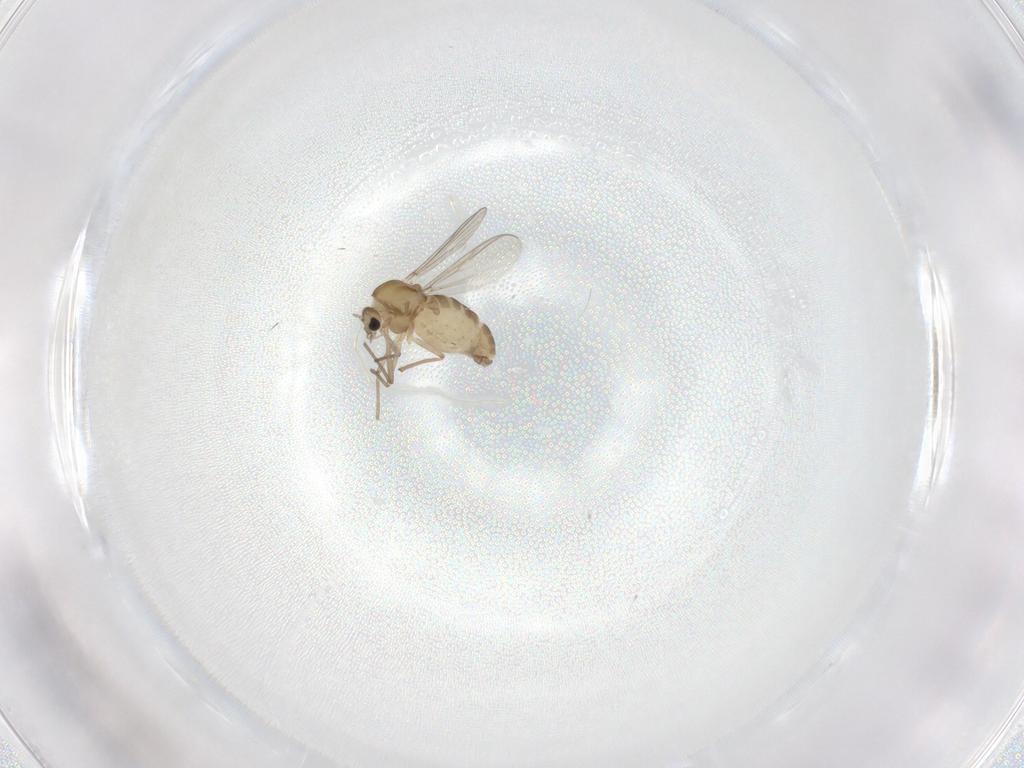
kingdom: Animalia
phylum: Arthropoda
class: Insecta
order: Diptera
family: Chironomidae
